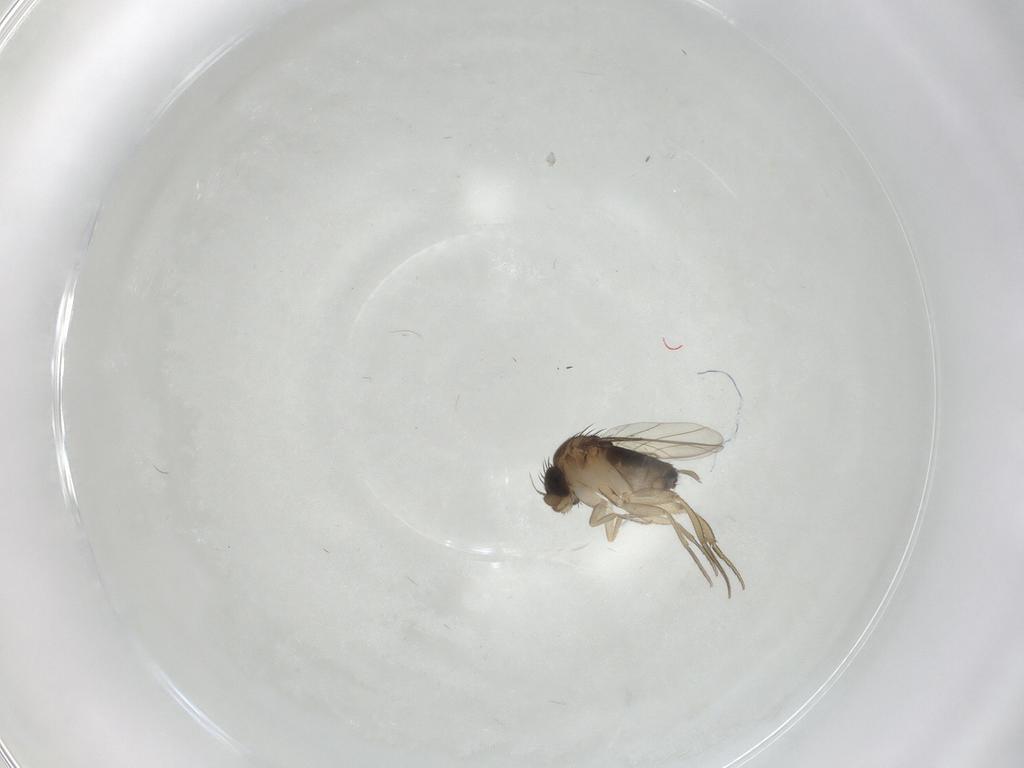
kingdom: Animalia
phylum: Arthropoda
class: Insecta
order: Diptera
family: Phoridae
